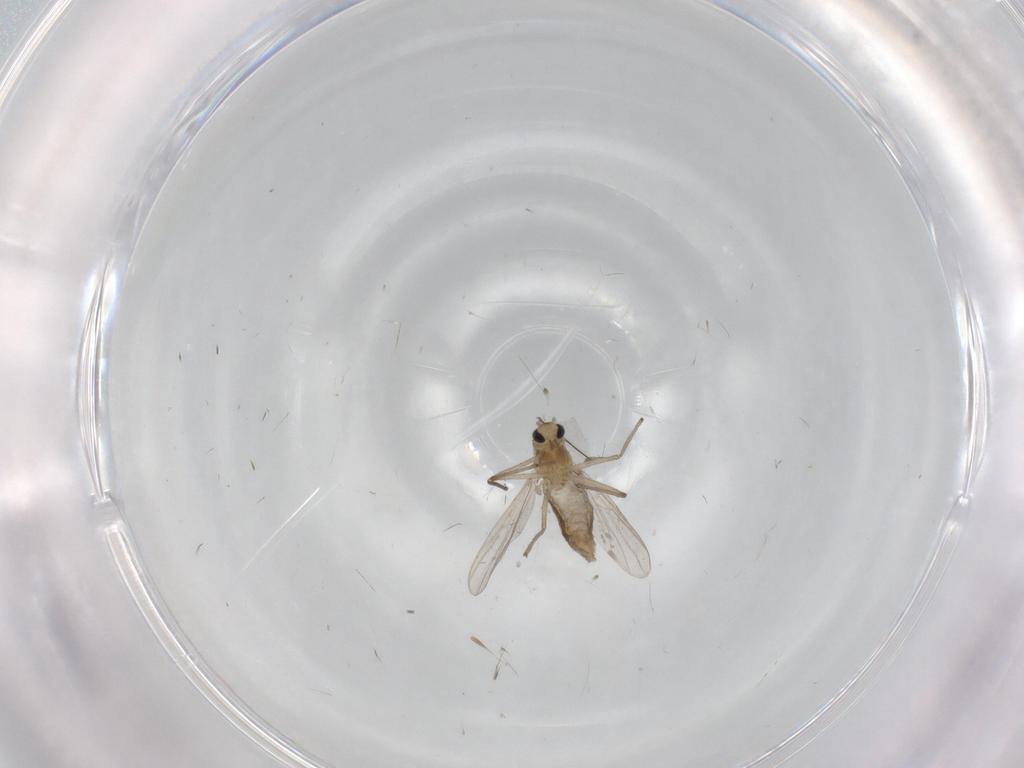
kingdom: Animalia
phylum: Arthropoda
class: Insecta
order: Diptera
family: Chironomidae
